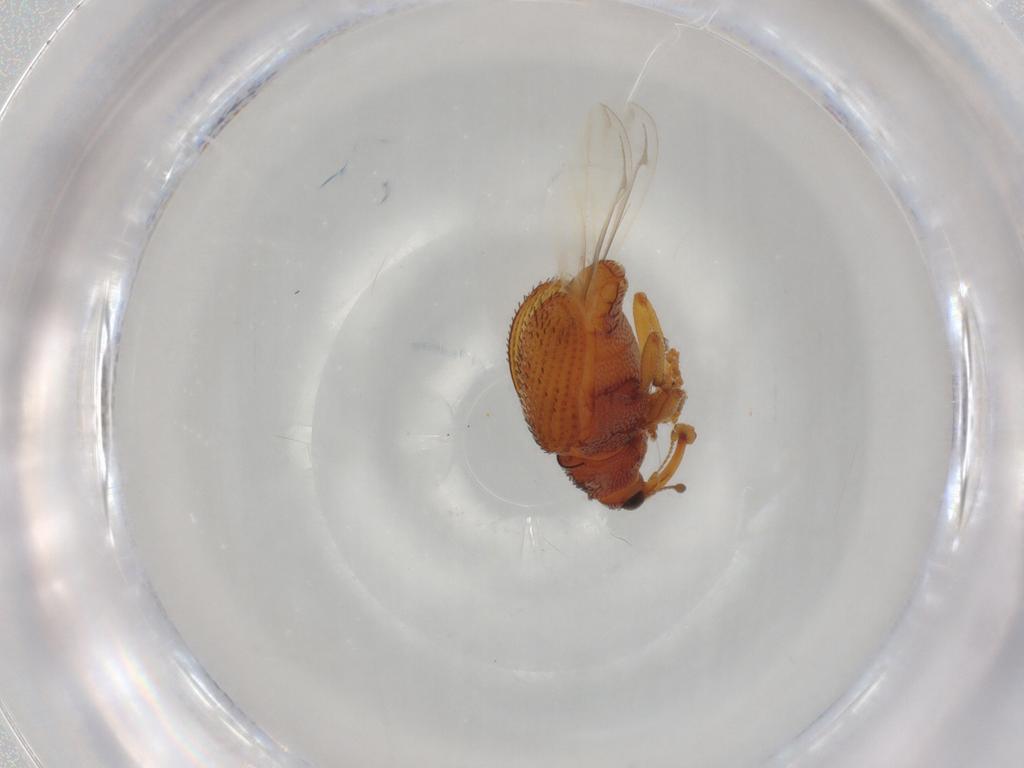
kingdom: Animalia
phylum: Arthropoda
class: Insecta
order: Coleoptera
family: Curculionidae
